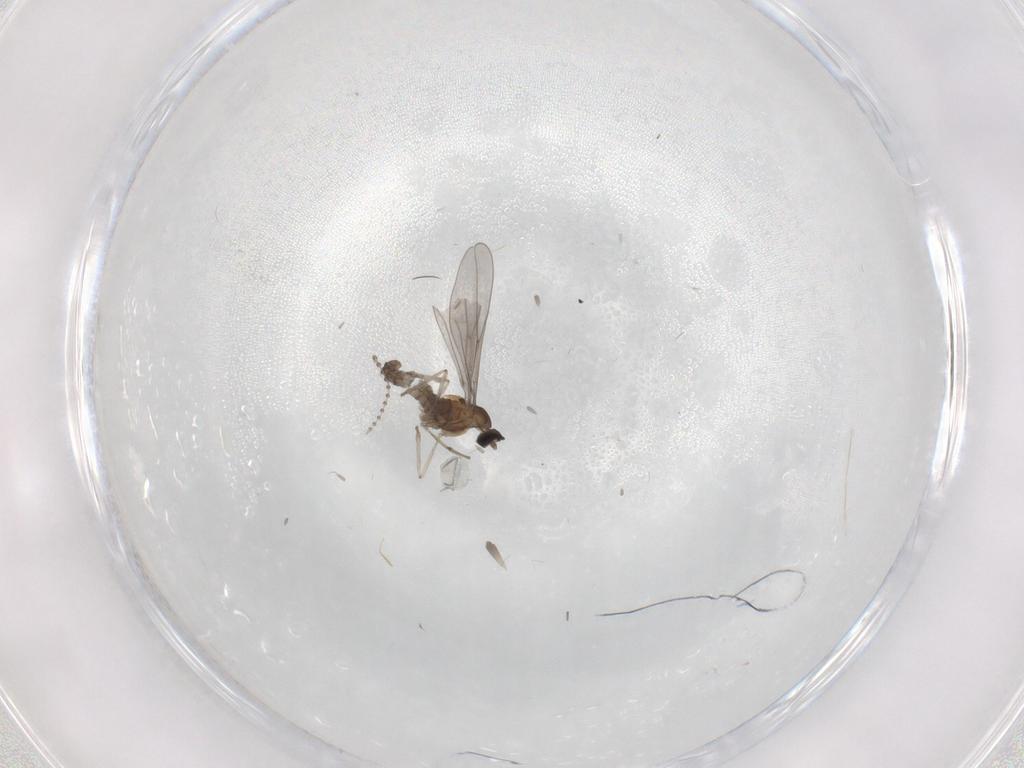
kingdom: Animalia
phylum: Arthropoda
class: Insecta
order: Diptera
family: Cecidomyiidae
